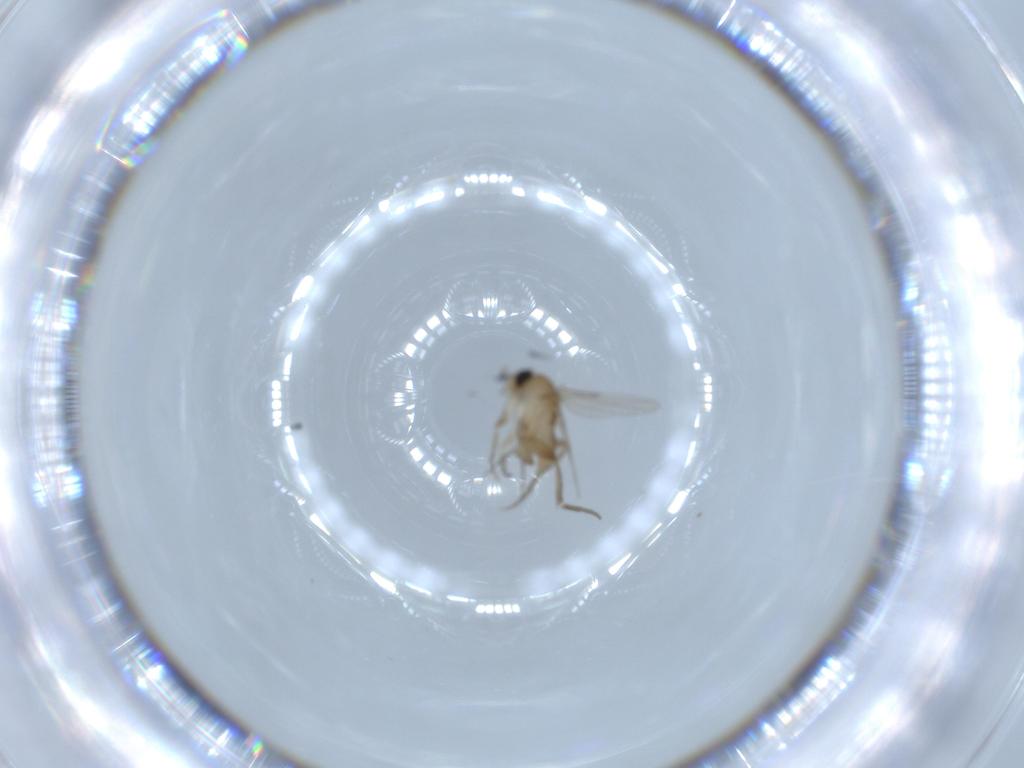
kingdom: Animalia
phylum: Arthropoda
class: Insecta
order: Diptera
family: Phoridae
